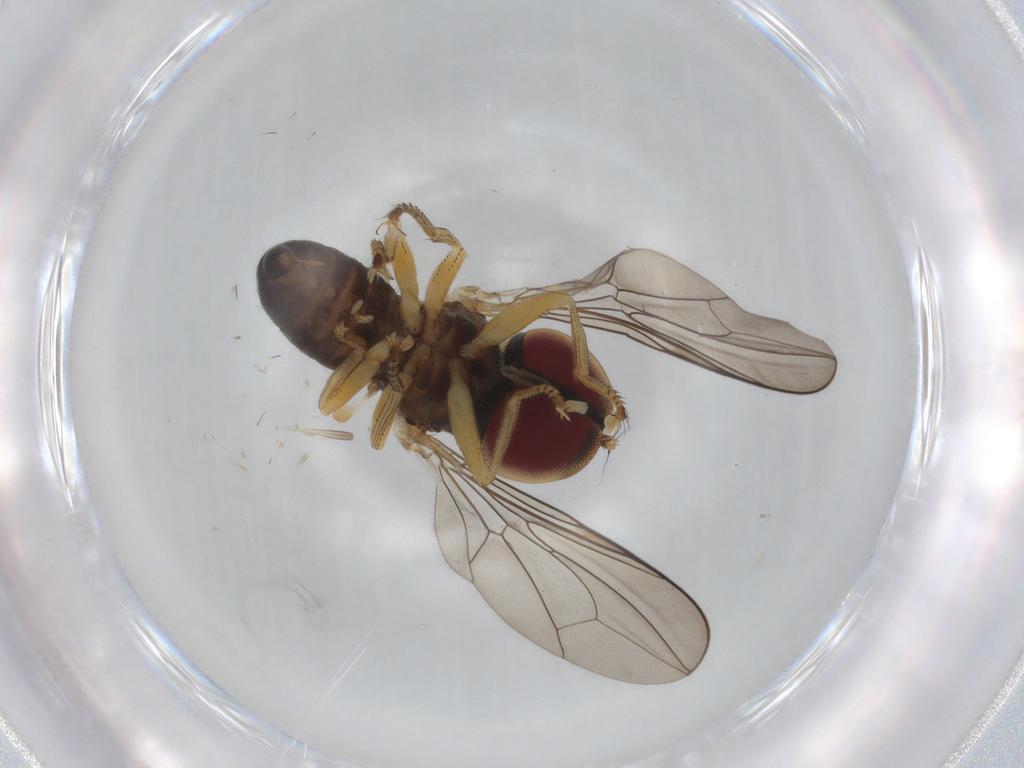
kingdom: Animalia
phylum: Arthropoda
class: Insecta
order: Diptera
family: Pipunculidae
